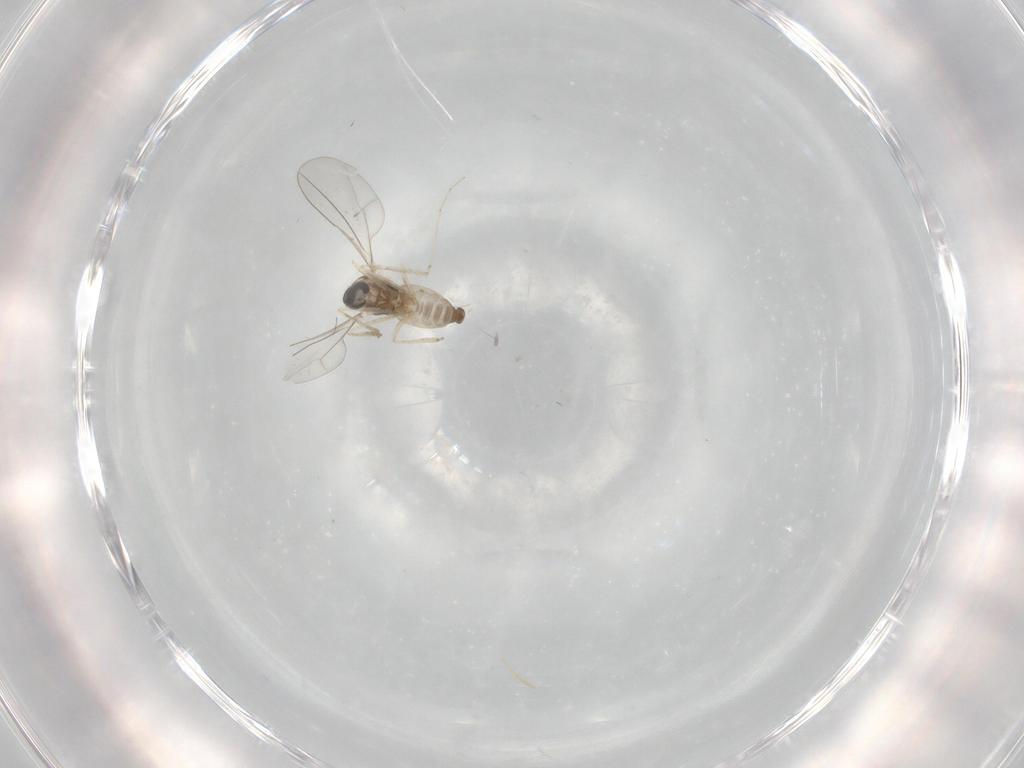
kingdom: Animalia
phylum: Arthropoda
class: Insecta
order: Diptera
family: Cecidomyiidae
